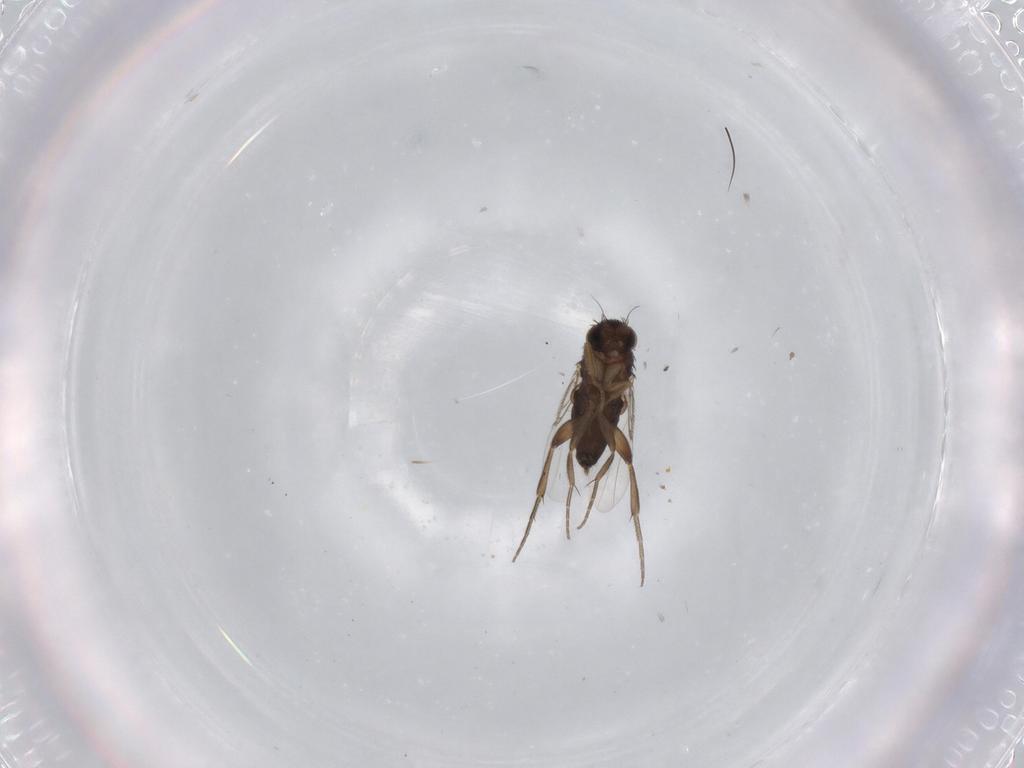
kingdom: Animalia
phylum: Arthropoda
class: Insecta
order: Diptera
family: Phoridae
